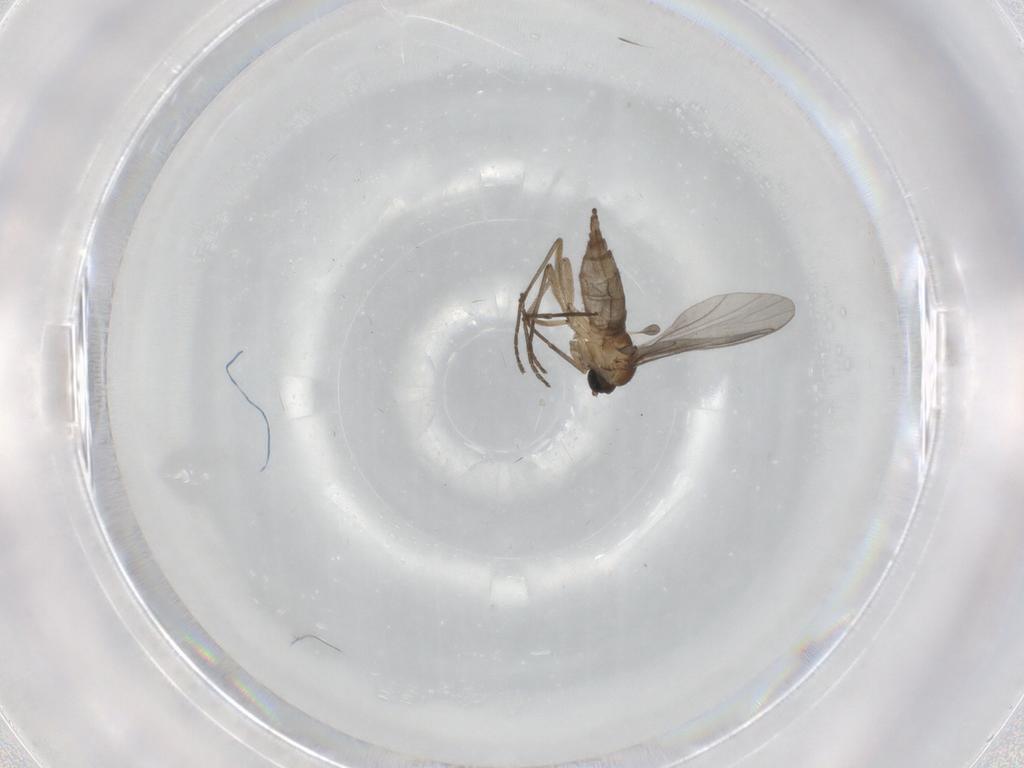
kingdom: Animalia
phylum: Arthropoda
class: Insecta
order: Diptera
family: Sciaridae
